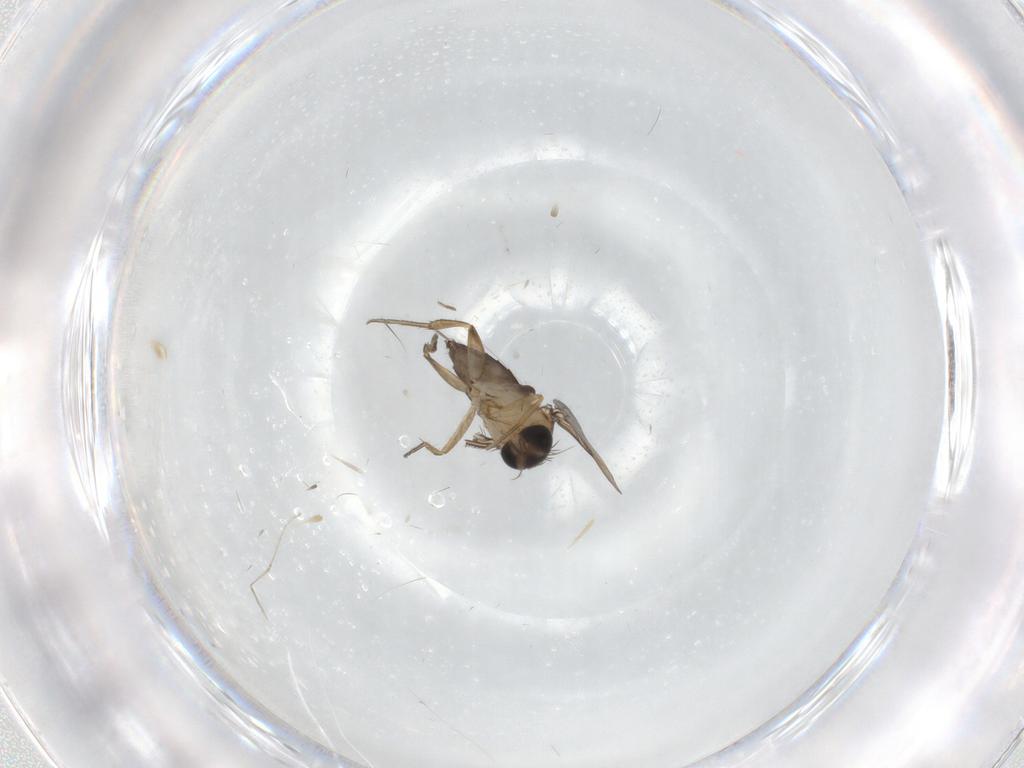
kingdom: Animalia
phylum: Arthropoda
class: Insecta
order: Diptera
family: Phoridae
